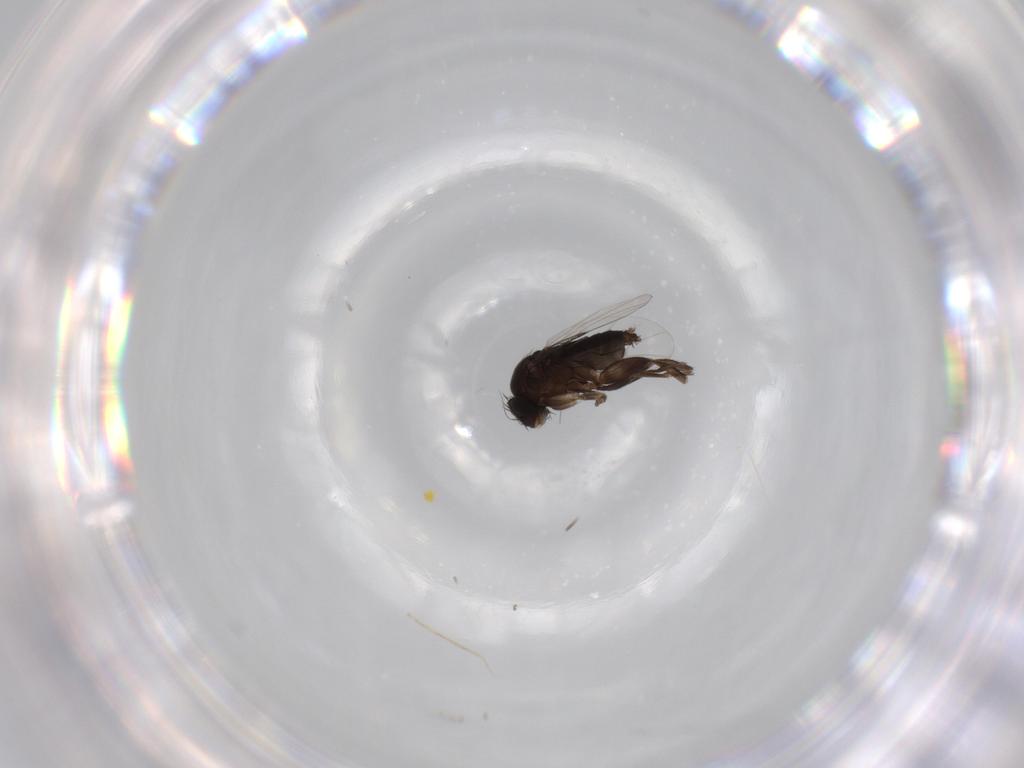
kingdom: Animalia
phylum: Arthropoda
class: Insecta
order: Diptera
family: Phoridae
